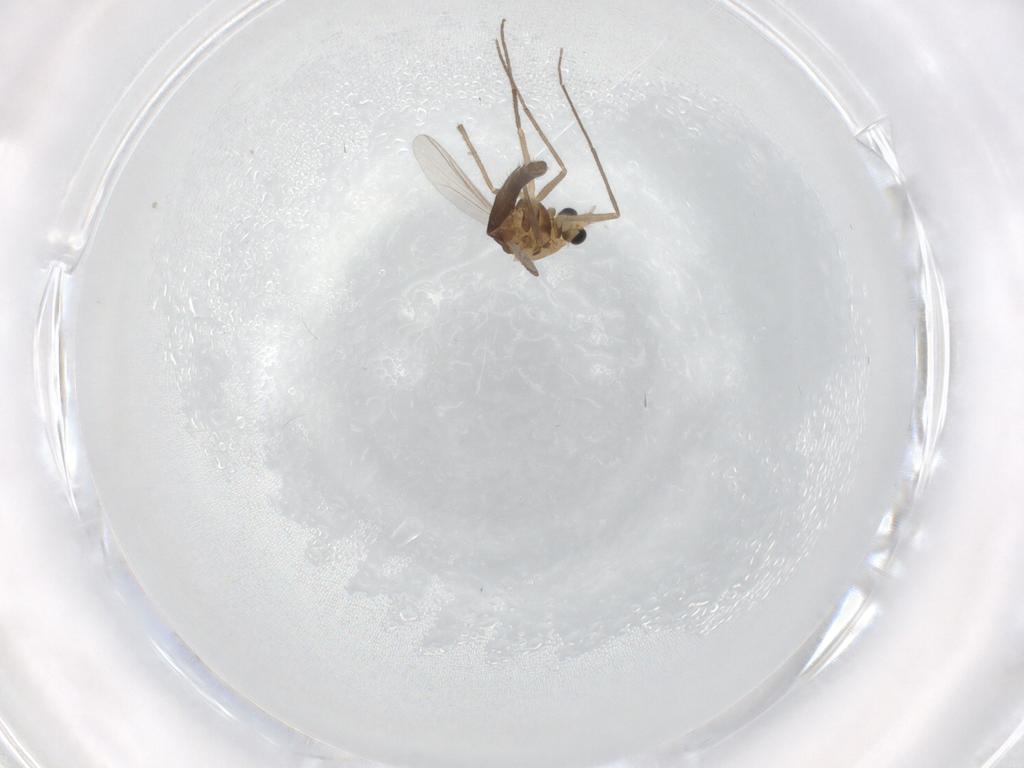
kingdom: Animalia
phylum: Arthropoda
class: Insecta
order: Diptera
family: Chironomidae
